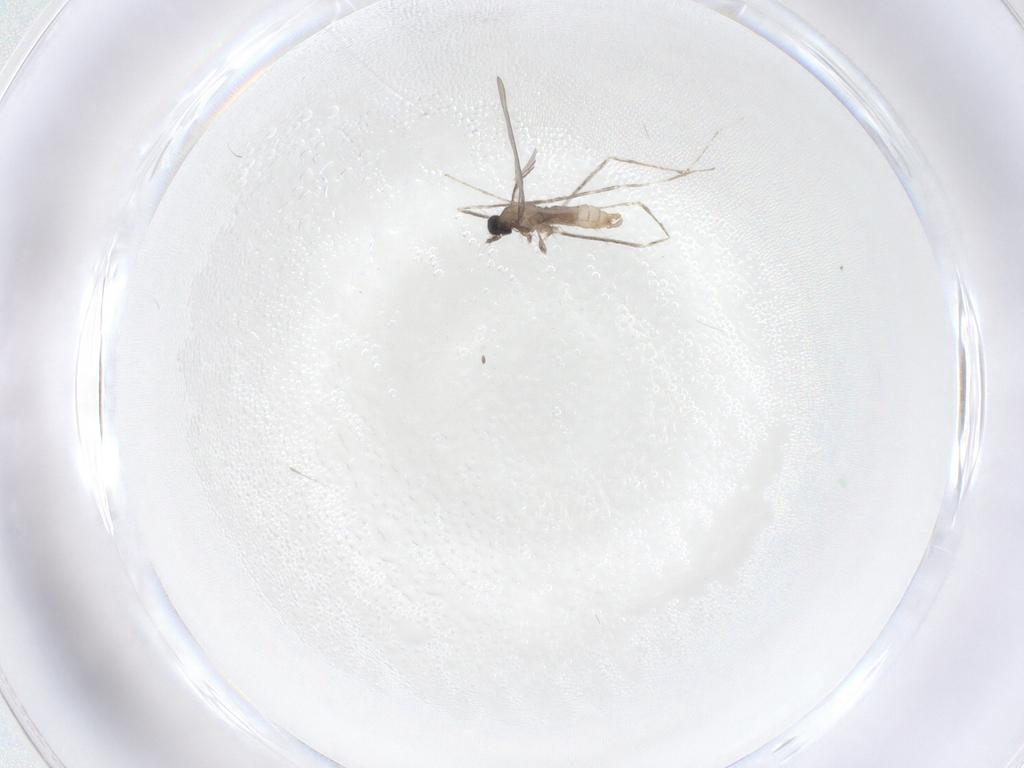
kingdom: Animalia
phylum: Arthropoda
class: Insecta
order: Diptera
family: Cecidomyiidae
